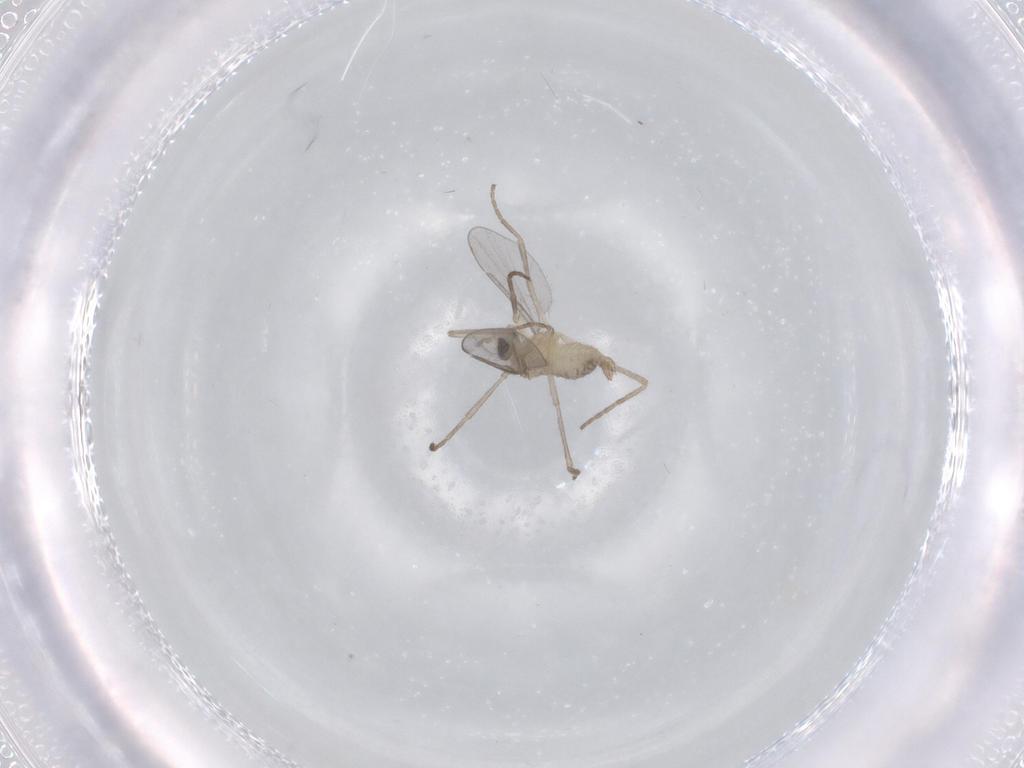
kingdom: Animalia
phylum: Arthropoda
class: Insecta
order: Diptera
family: Cecidomyiidae
